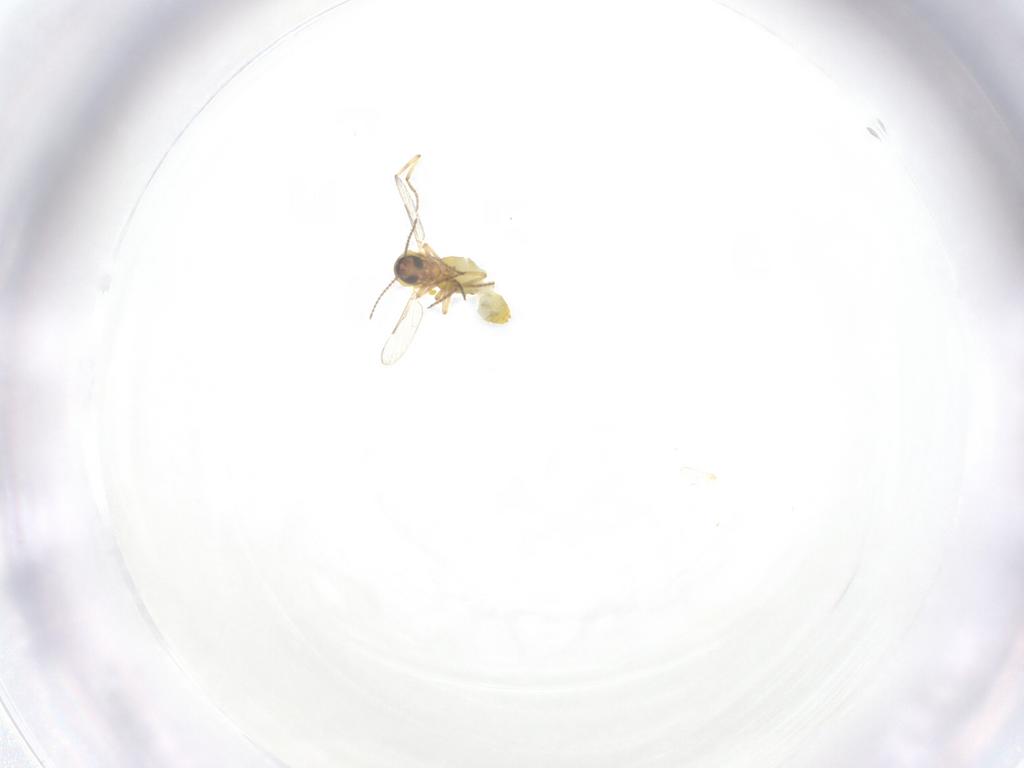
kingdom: Animalia
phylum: Arthropoda
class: Insecta
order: Diptera
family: Ceratopogonidae
